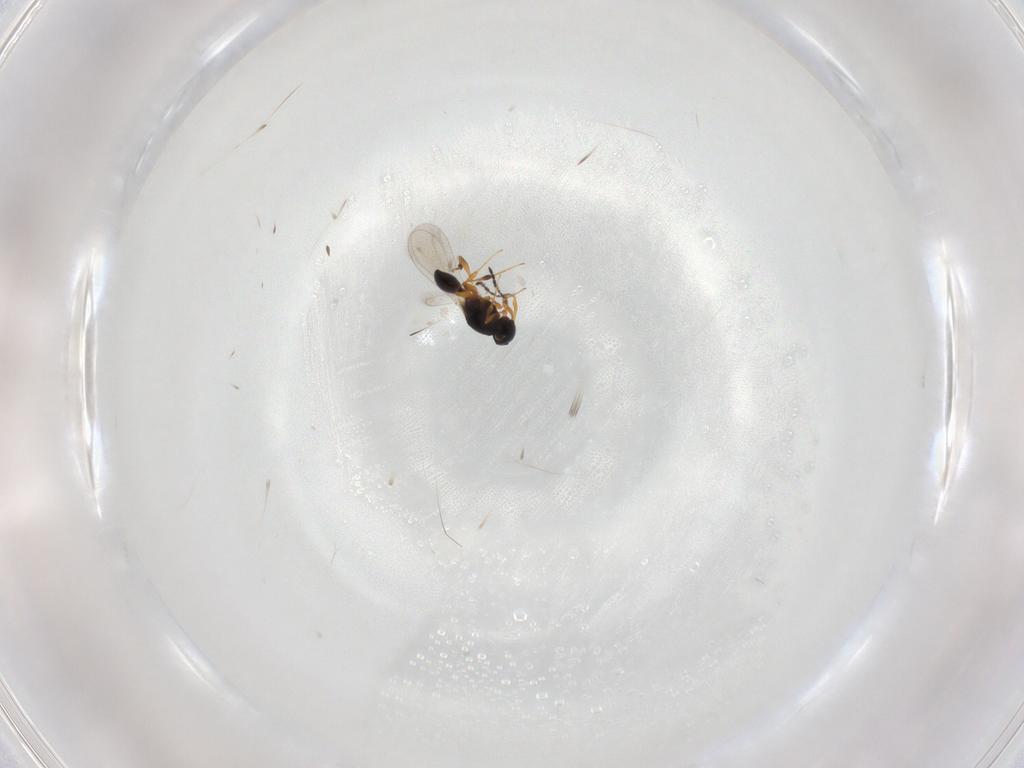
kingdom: Animalia
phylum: Arthropoda
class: Insecta
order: Hymenoptera
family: Platygastridae
